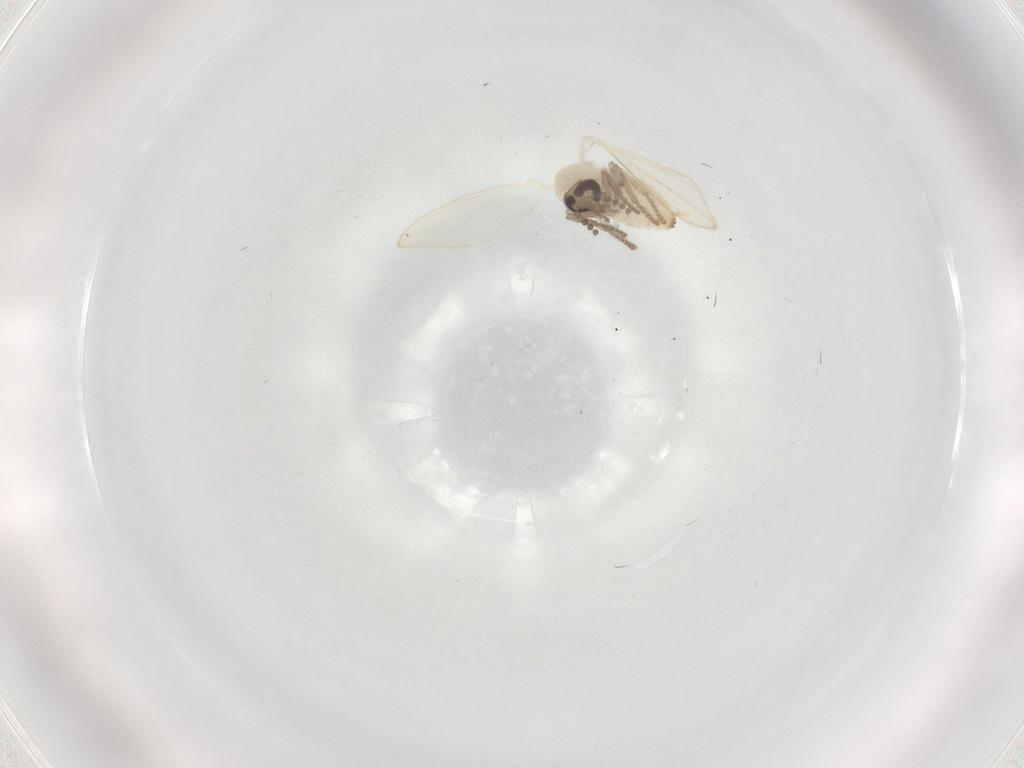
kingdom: Animalia
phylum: Arthropoda
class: Insecta
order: Diptera
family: Psychodidae
